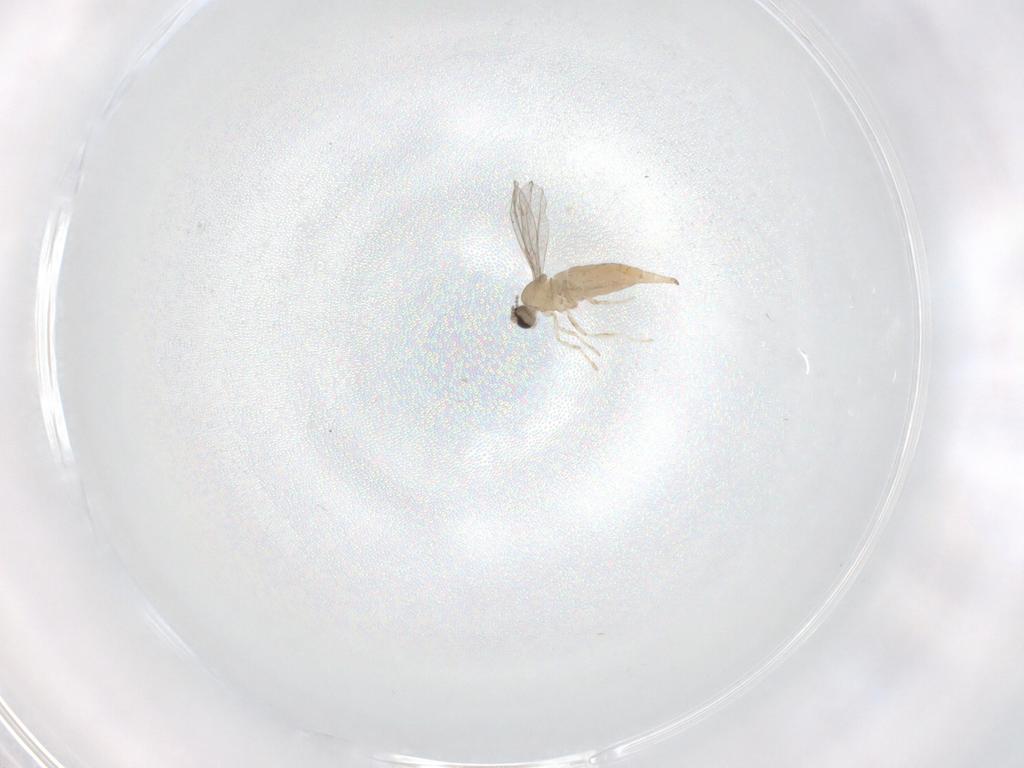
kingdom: Animalia
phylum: Arthropoda
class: Insecta
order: Diptera
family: Cecidomyiidae
